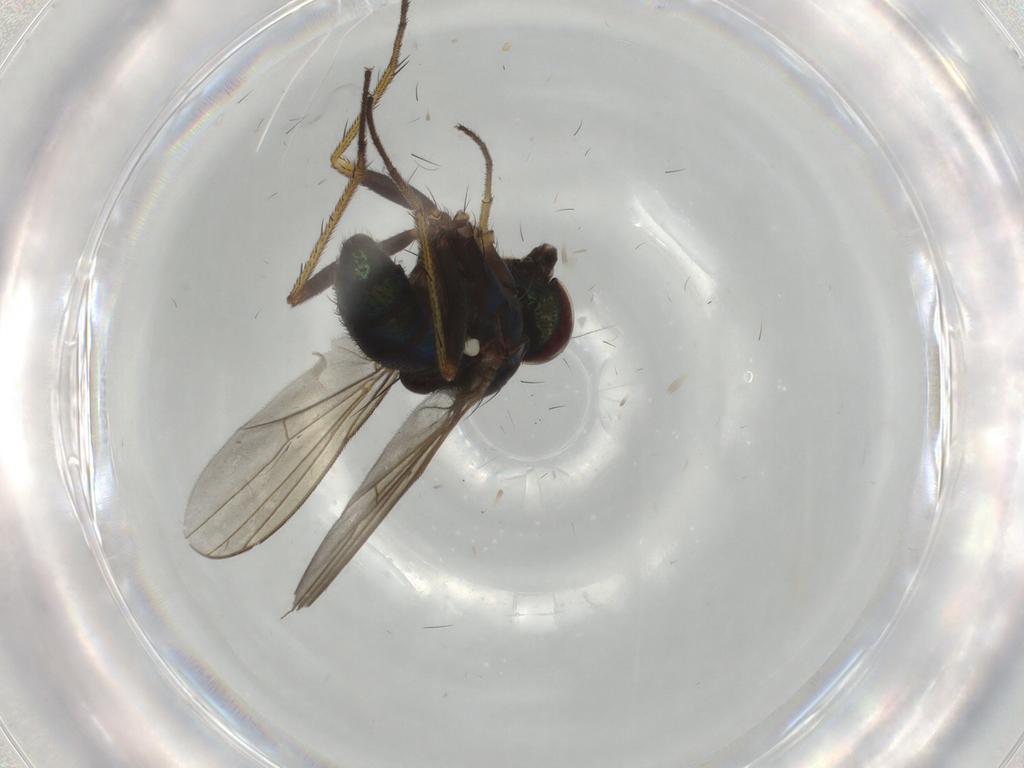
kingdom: Animalia
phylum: Arthropoda
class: Insecta
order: Diptera
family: Dolichopodidae
